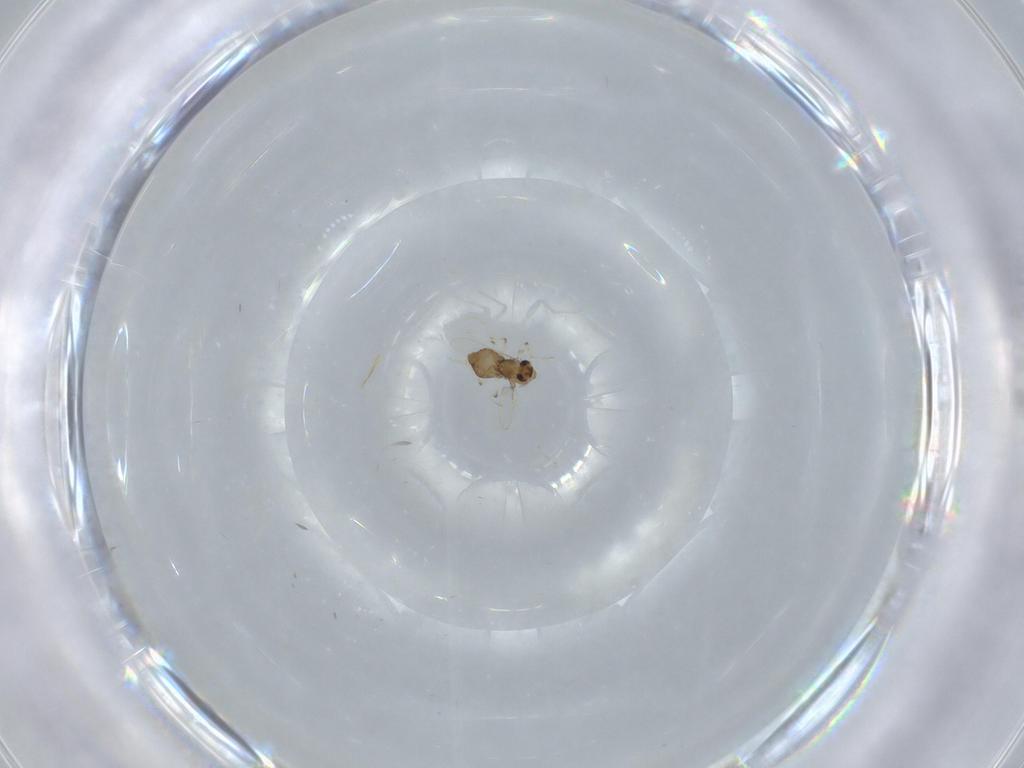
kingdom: Animalia
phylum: Arthropoda
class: Insecta
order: Diptera
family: Chironomidae
